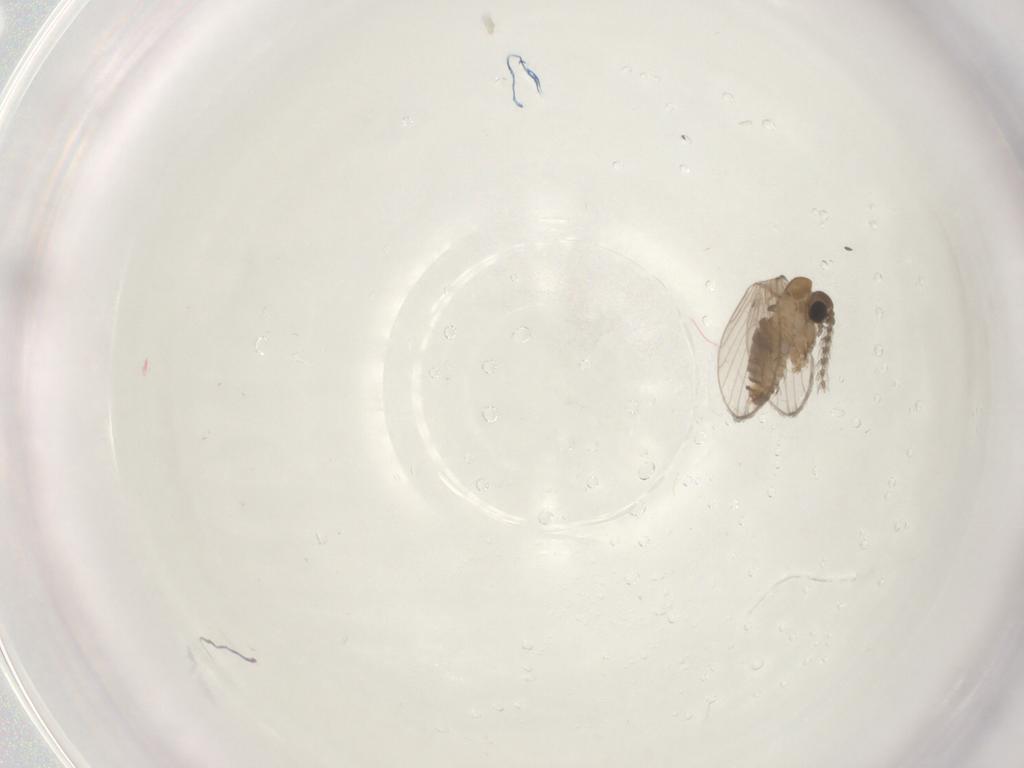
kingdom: Animalia
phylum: Arthropoda
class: Insecta
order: Diptera
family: Psychodidae
